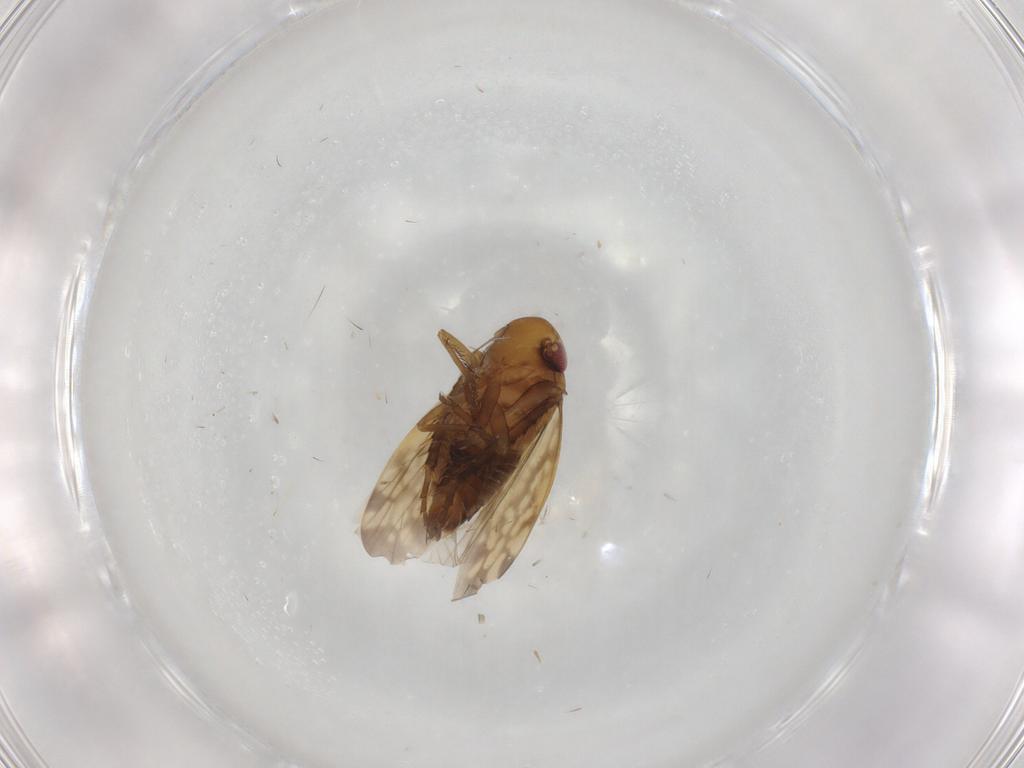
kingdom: Animalia
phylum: Arthropoda
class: Insecta
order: Hemiptera
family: Cicadellidae
